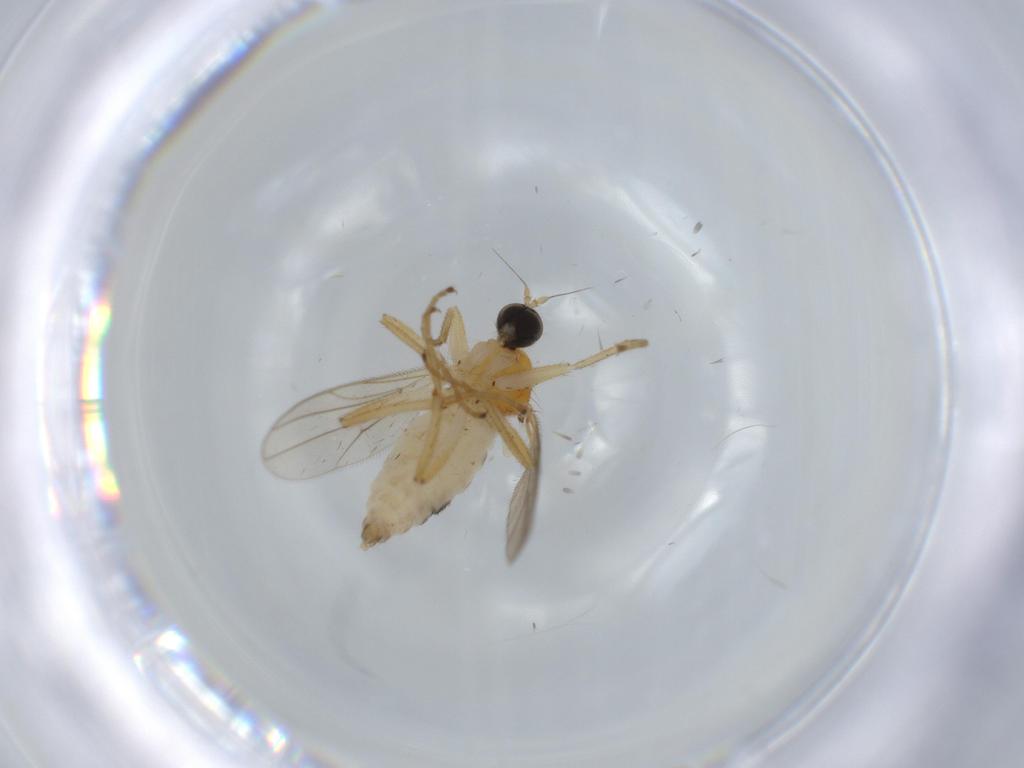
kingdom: Animalia
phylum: Arthropoda
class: Insecta
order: Diptera
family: Hybotidae
